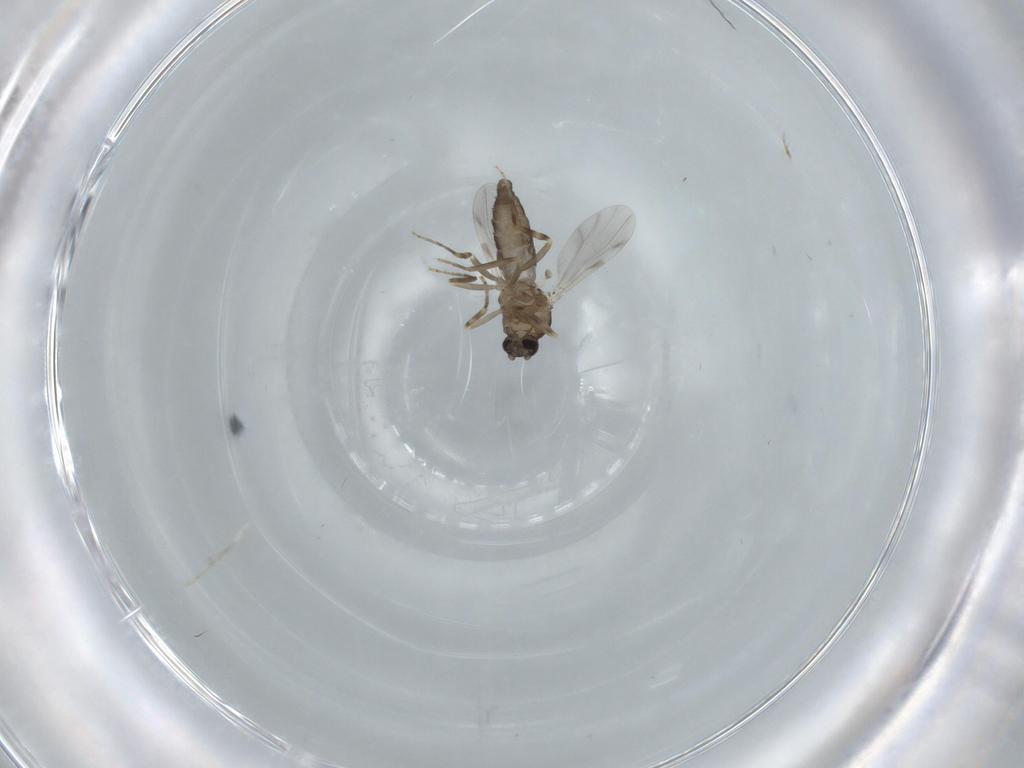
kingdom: Animalia
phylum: Arthropoda
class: Insecta
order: Diptera
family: Ceratopogonidae
